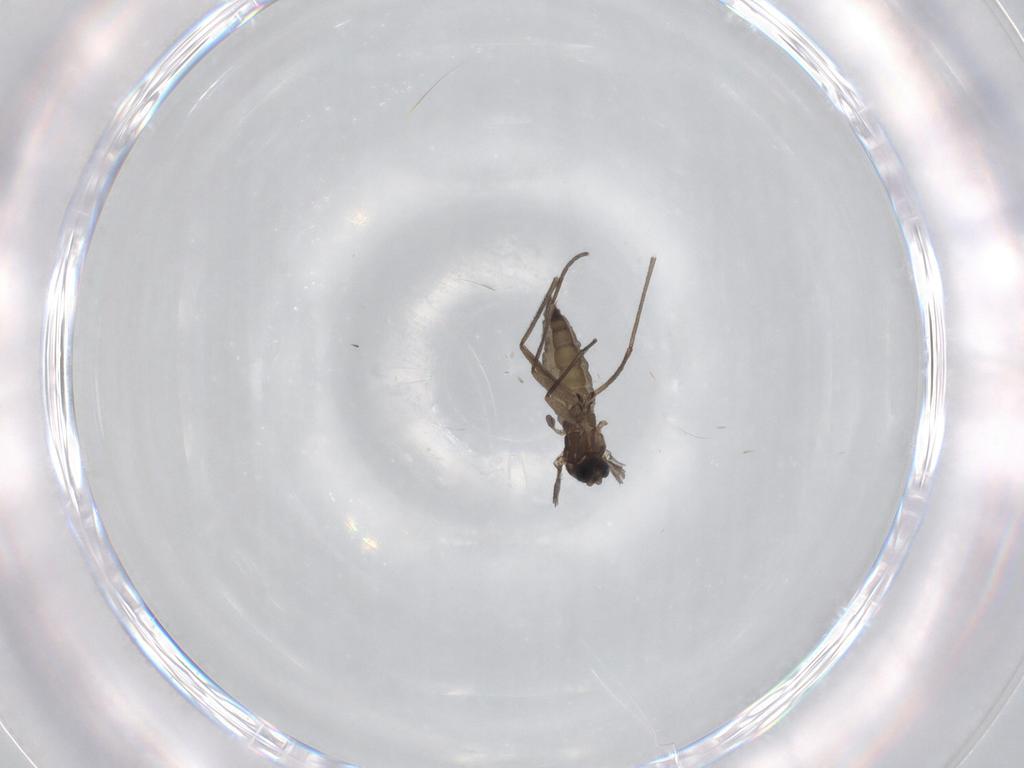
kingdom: Animalia
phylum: Arthropoda
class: Insecta
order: Diptera
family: Sciaridae
